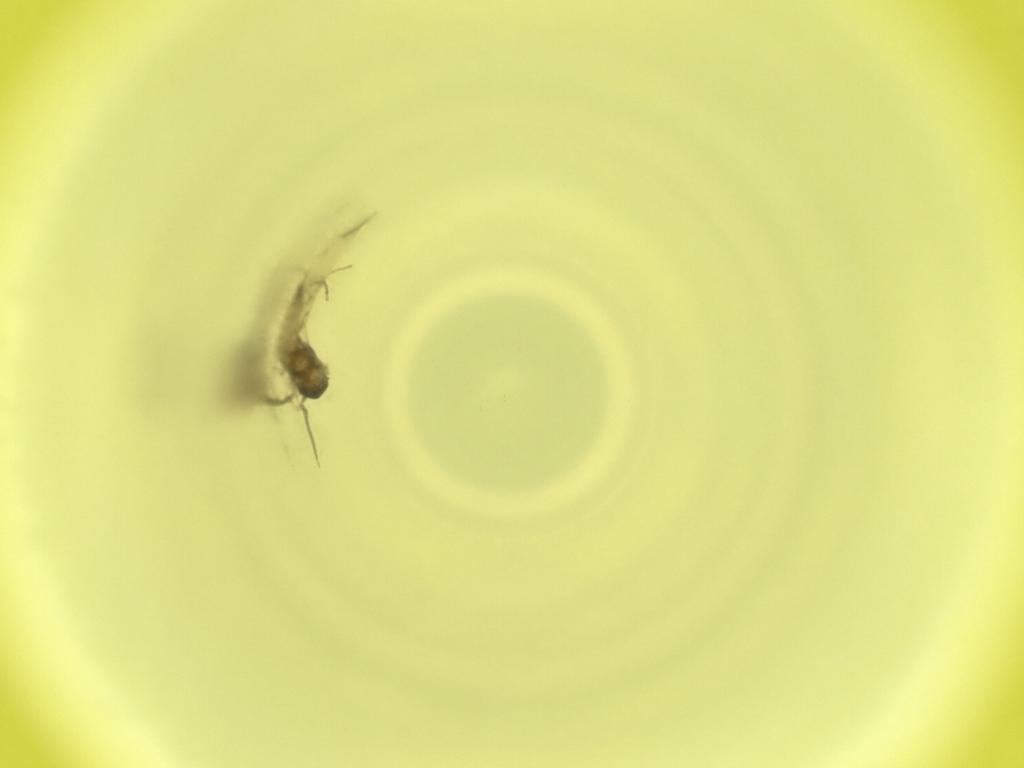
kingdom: Animalia
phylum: Arthropoda
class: Insecta
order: Diptera
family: Cecidomyiidae
